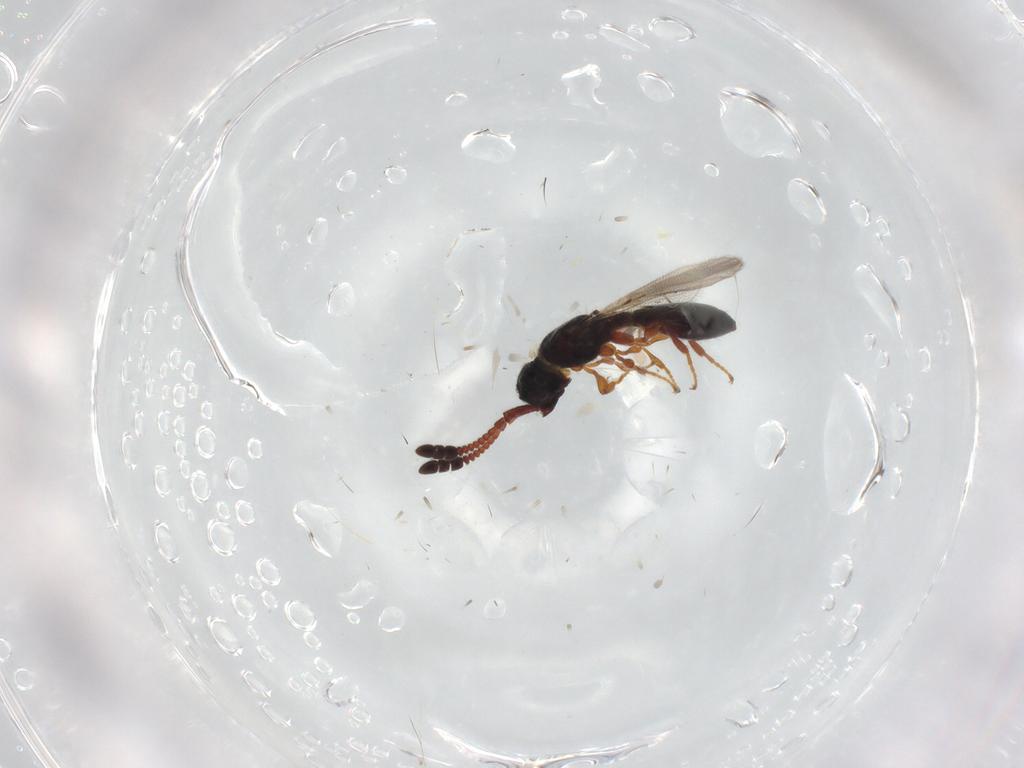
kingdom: Animalia
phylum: Arthropoda
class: Insecta
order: Hymenoptera
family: Diapriidae
